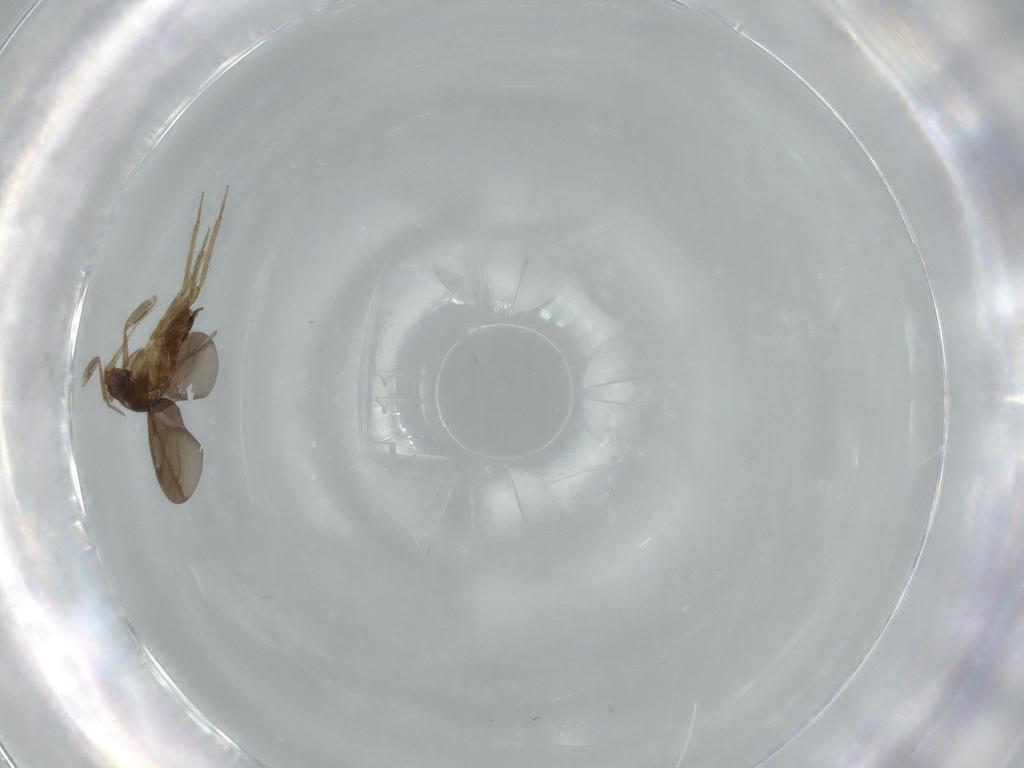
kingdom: Animalia
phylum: Arthropoda
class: Insecta
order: Hemiptera
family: Ceratocombidae
